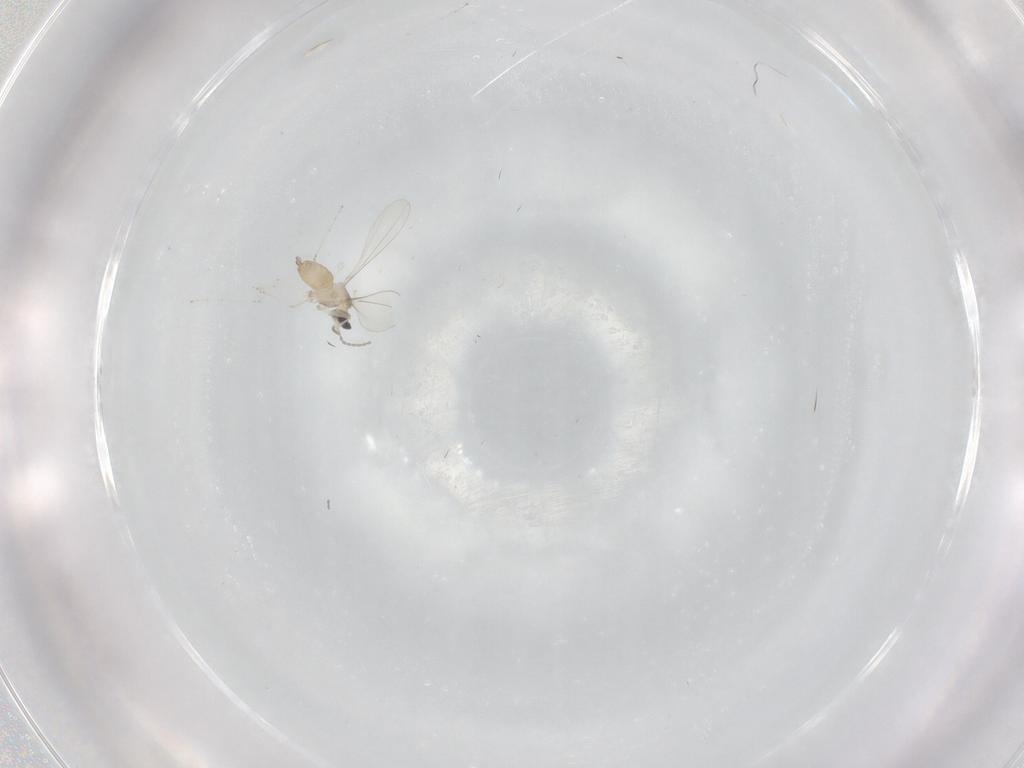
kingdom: Animalia
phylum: Arthropoda
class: Insecta
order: Diptera
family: Cecidomyiidae
